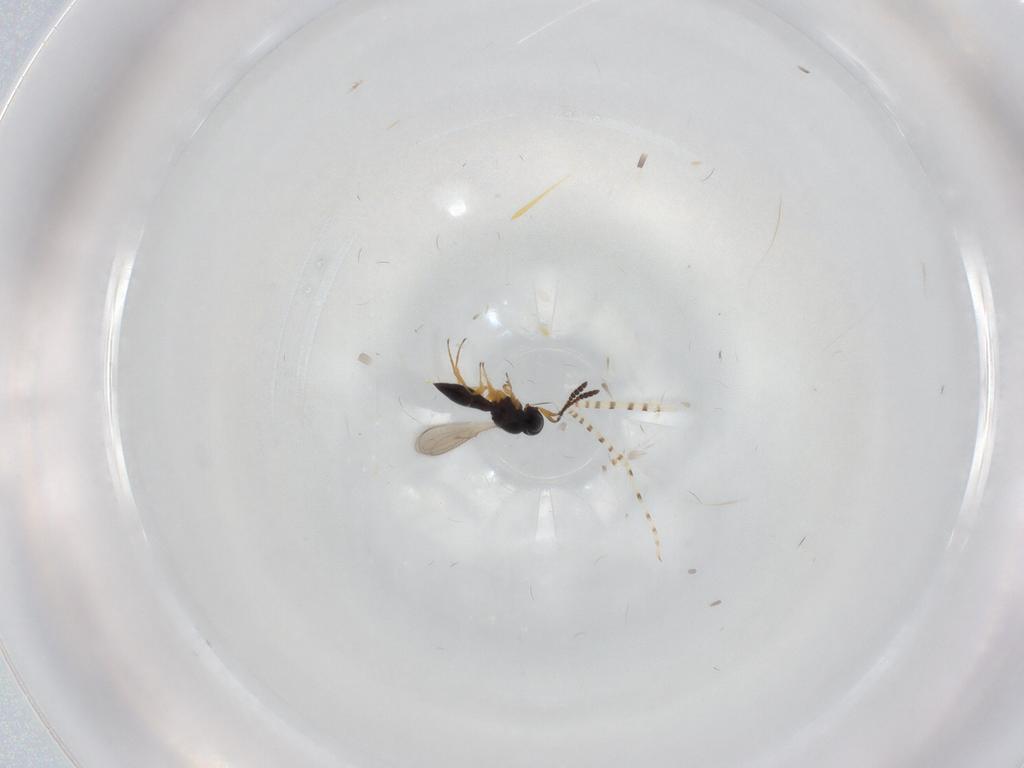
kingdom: Animalia
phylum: Arthropoda
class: Insecta
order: Hymenoptera
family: Scelionidae
